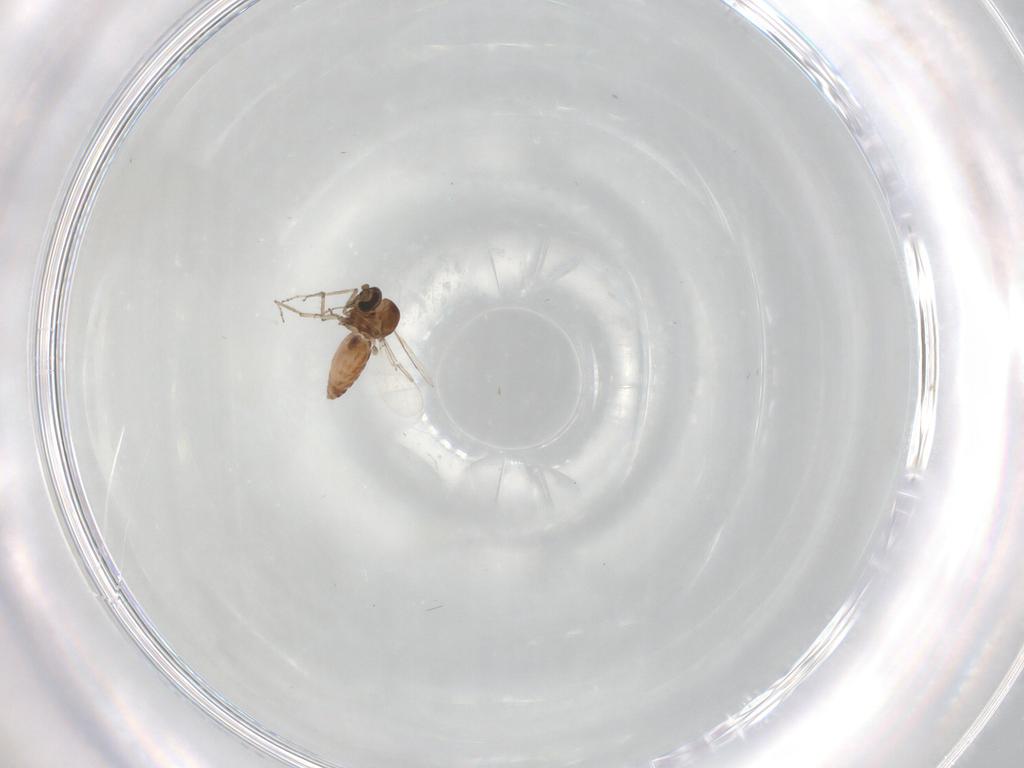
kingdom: Animalia
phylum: Arthropoda
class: Insecta
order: Diptera
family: Ceratopogonidae
